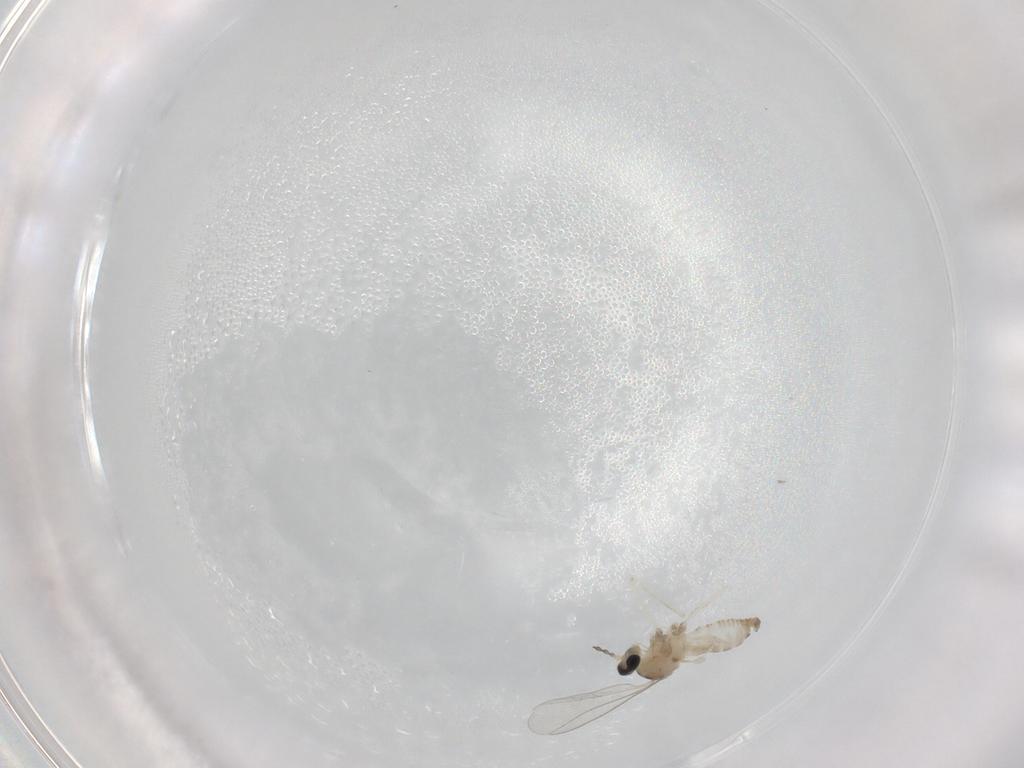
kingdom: Animalia
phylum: Arthropoda
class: Insecta
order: Diptera
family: Cecidomyiidae
